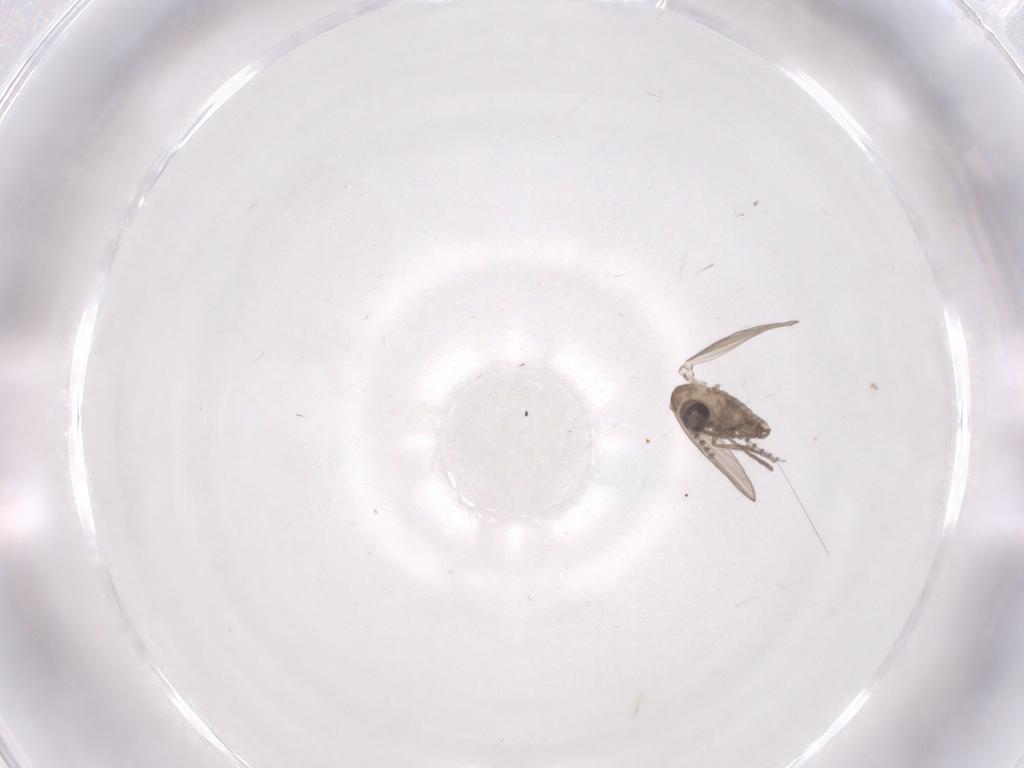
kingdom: Animalia
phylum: Arthropoda
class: Insecta
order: Diptera
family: Psychodidae
